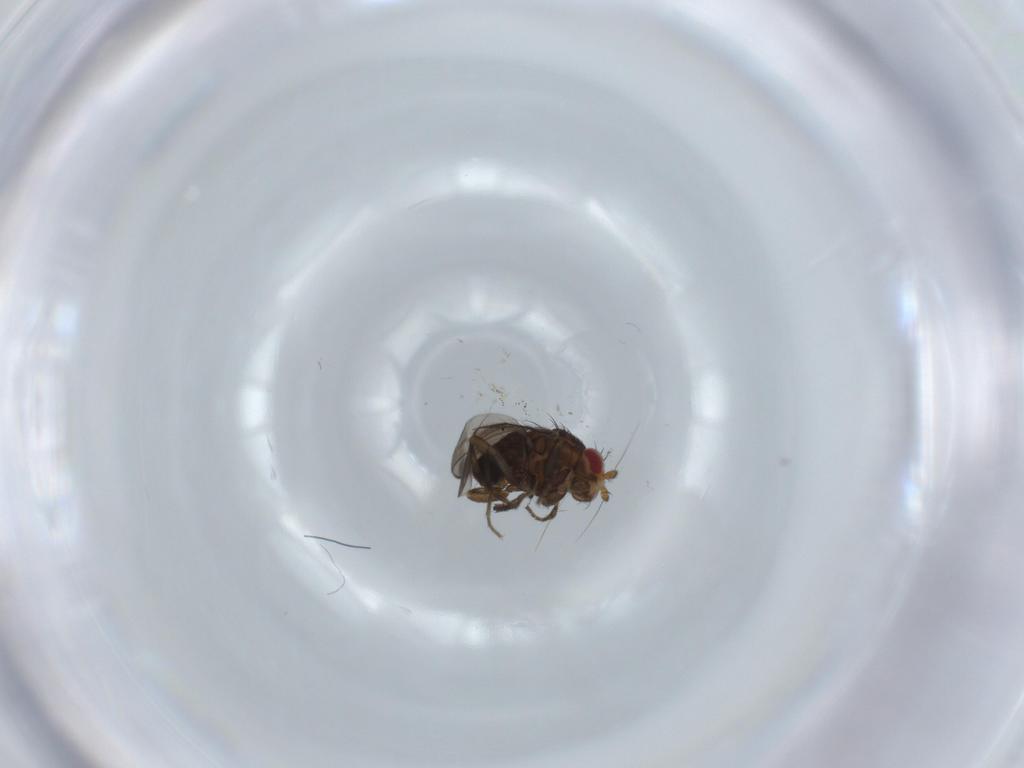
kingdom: Animalia
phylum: Arthropoda
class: Insecta
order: Diptera
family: Sphaeroceridae
